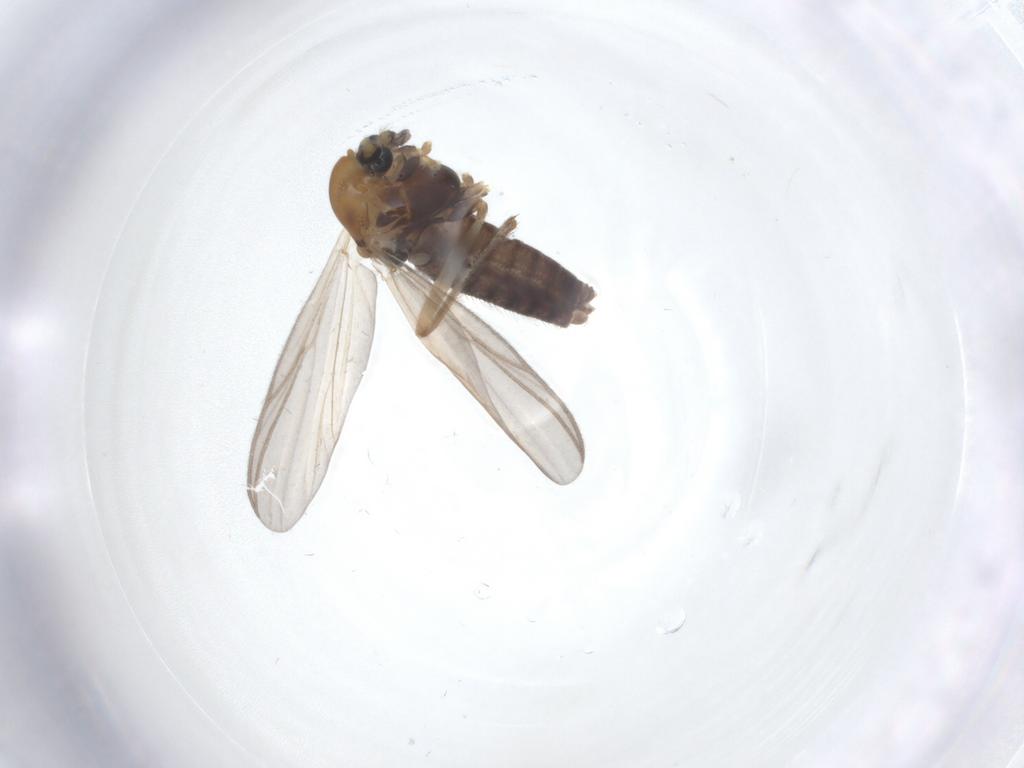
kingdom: Animalia
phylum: Arthropoda
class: Insecta
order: Diptera
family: Chironomidae
